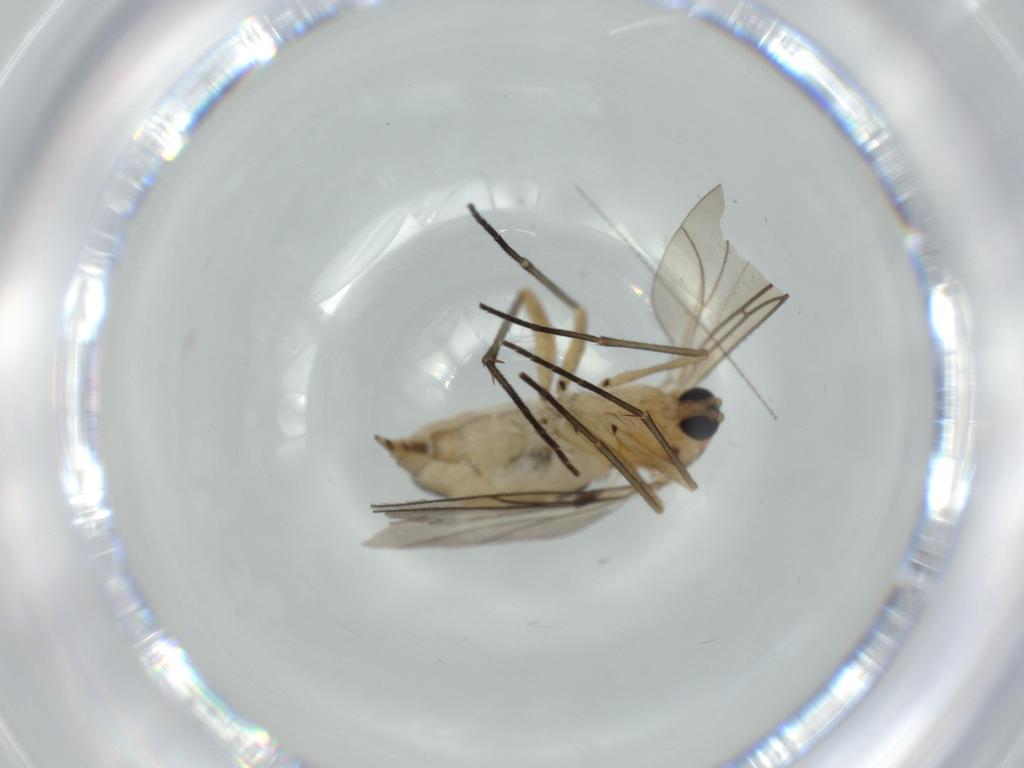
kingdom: Animalia
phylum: Arthropoda
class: Insecta
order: Diptera
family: Sciaridae
